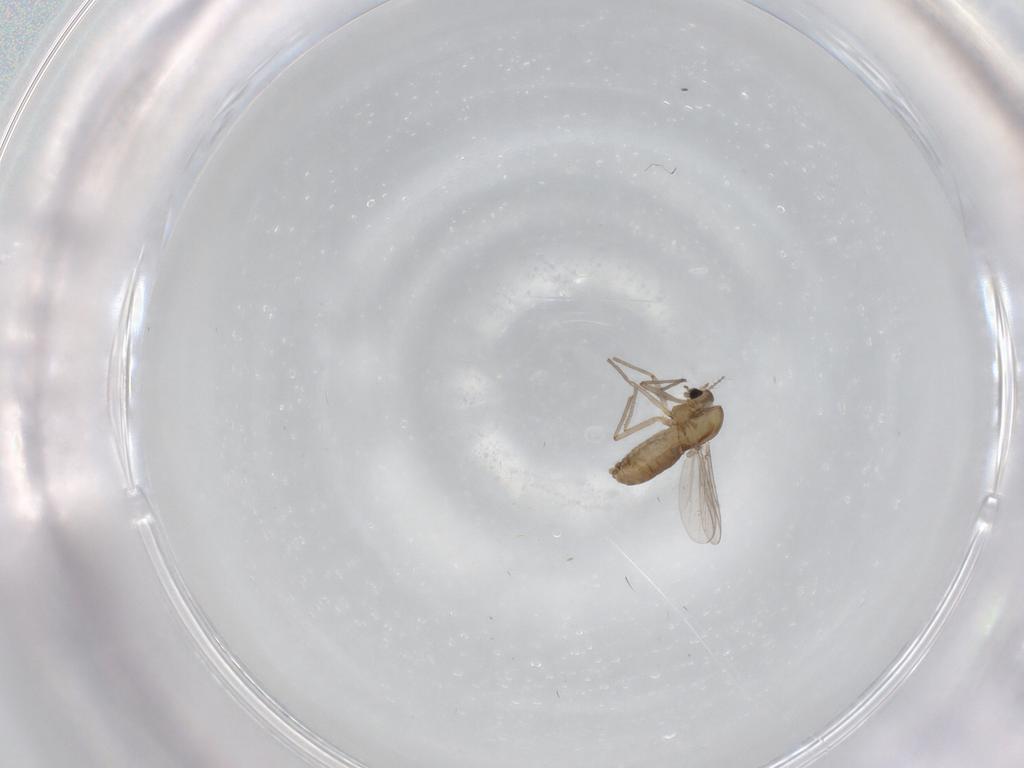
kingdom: Animalia
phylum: Arthropoda
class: Insecta
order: Diptera
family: Chironomidae
